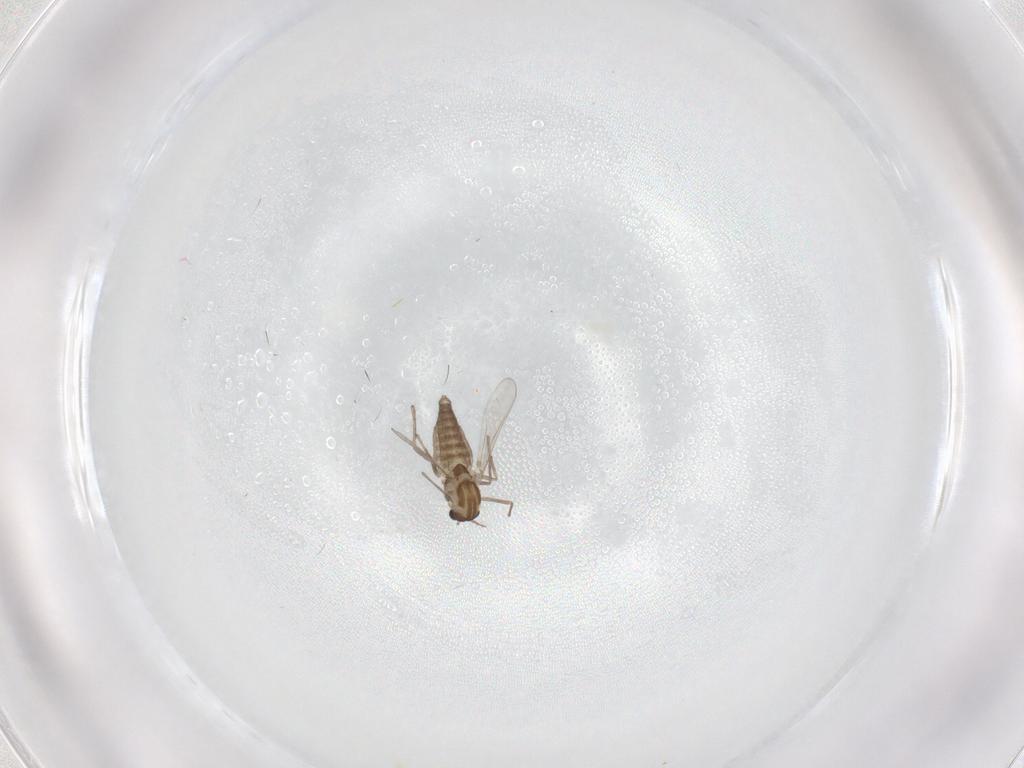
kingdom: Animalia
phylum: Arthropoda
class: Insecta
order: Diptera
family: Chironomidae
